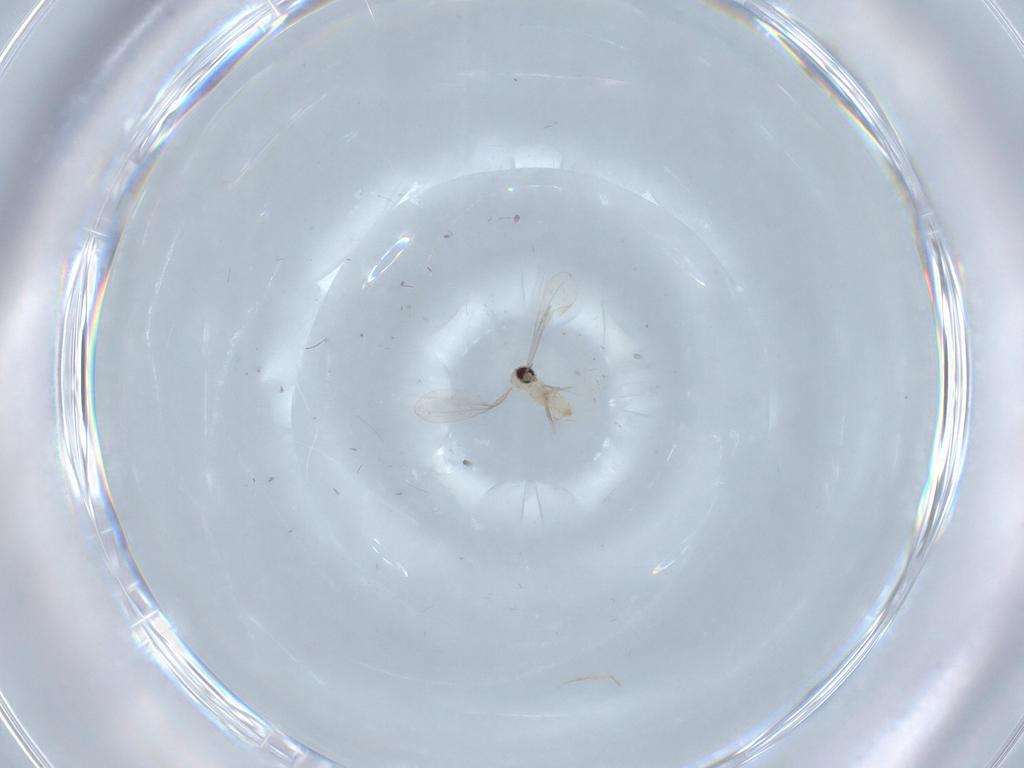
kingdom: Animalia
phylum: Arthropoda
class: Insecta
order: Diptera
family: Cecidomyiidae
